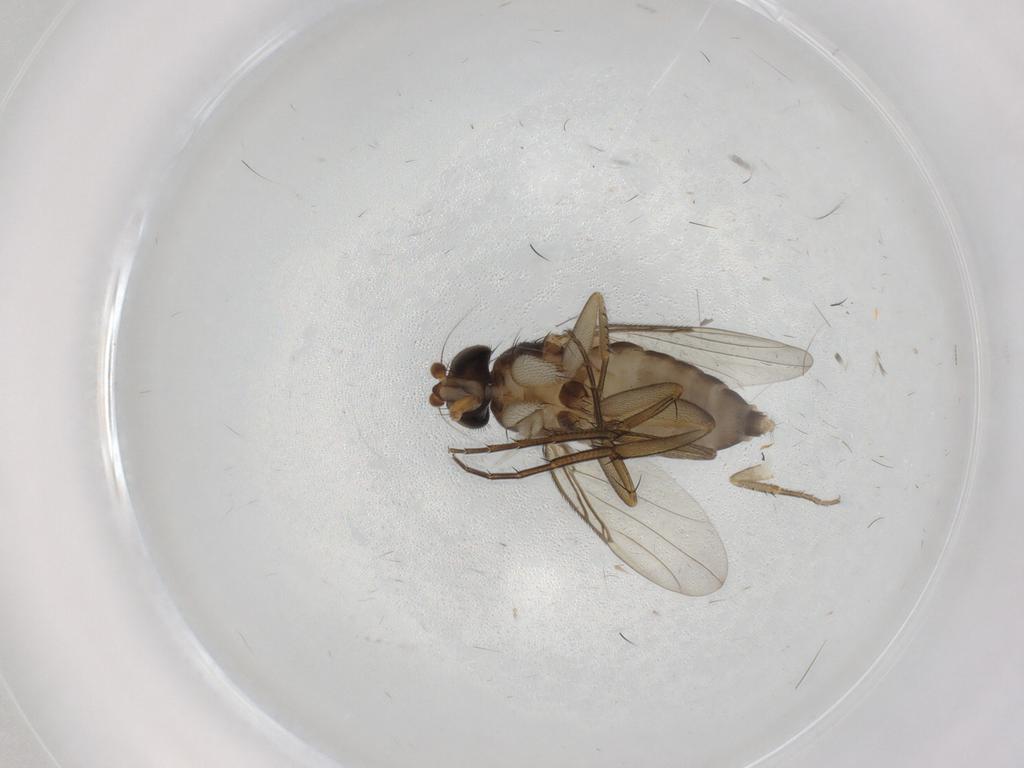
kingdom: Animalia
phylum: Arthropoda
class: Insecta
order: Diptera
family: Phoridae
